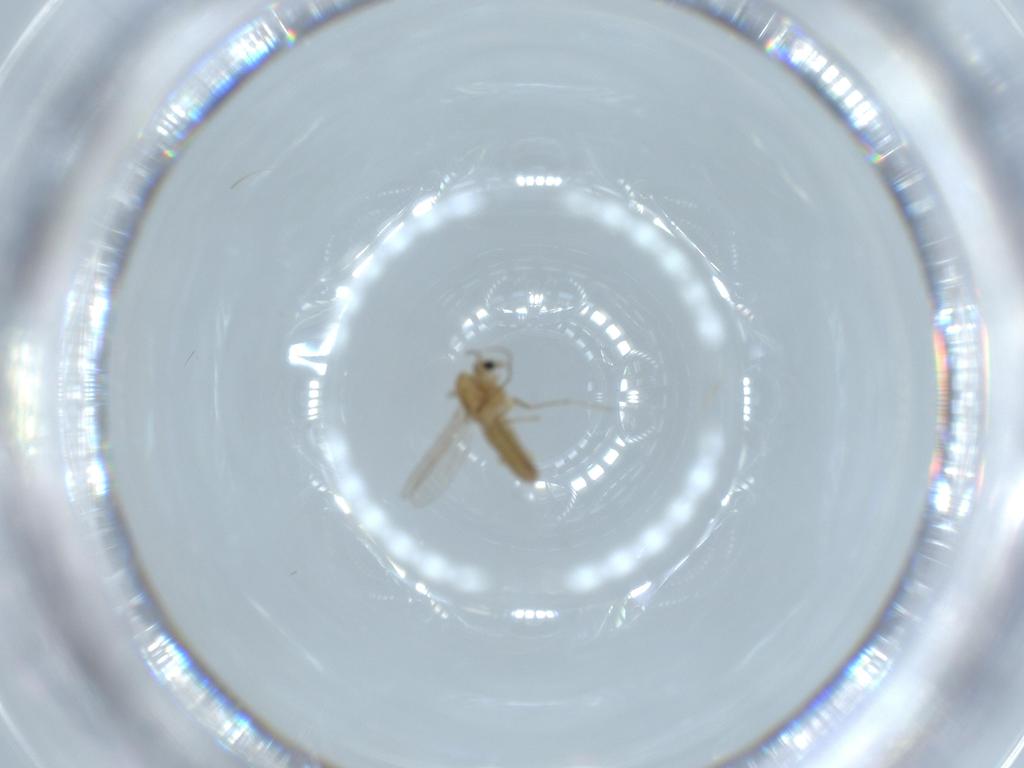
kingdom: Animalia
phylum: Arthropoda
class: Insecta
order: Diptera
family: Chironomidae
